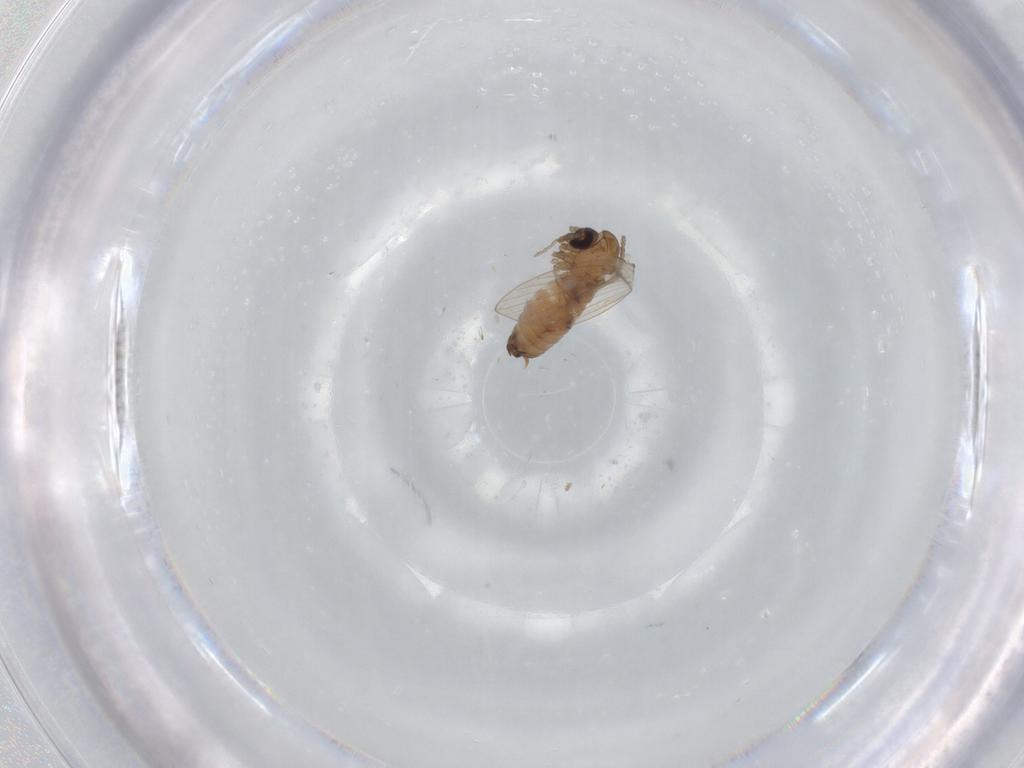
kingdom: Animalia
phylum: Arthropoda
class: Insecta
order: Diptera
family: Psychodidae
